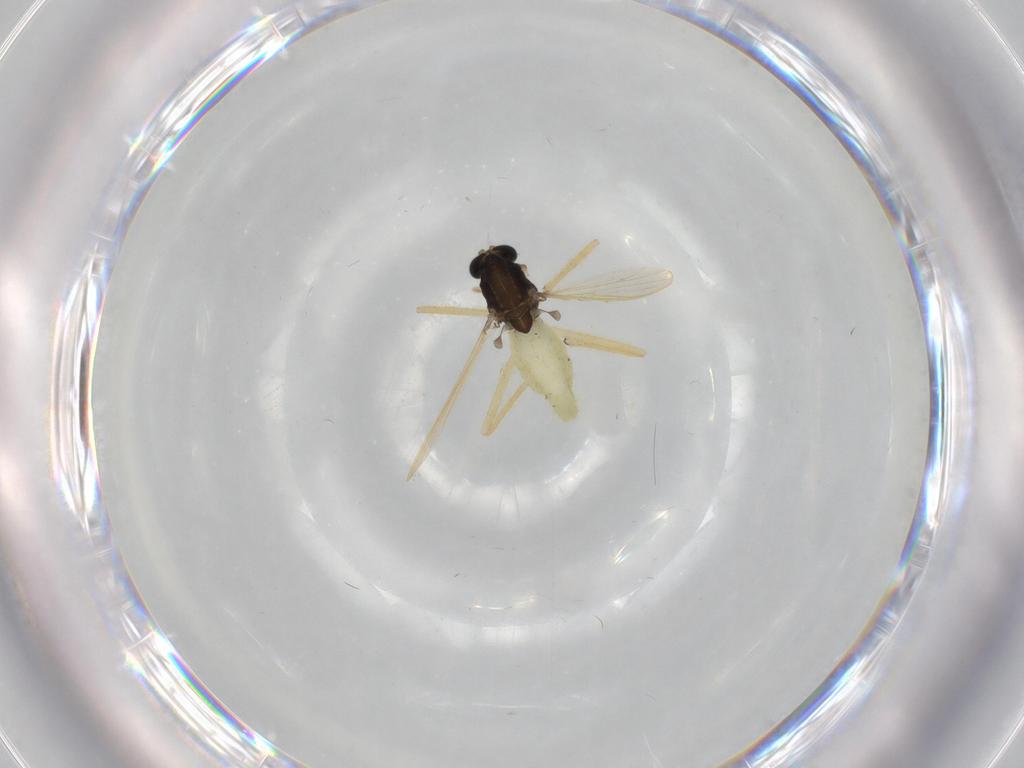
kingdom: Animalia
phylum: Arthropoda
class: Insecta
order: Diptera
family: Chironomidae
